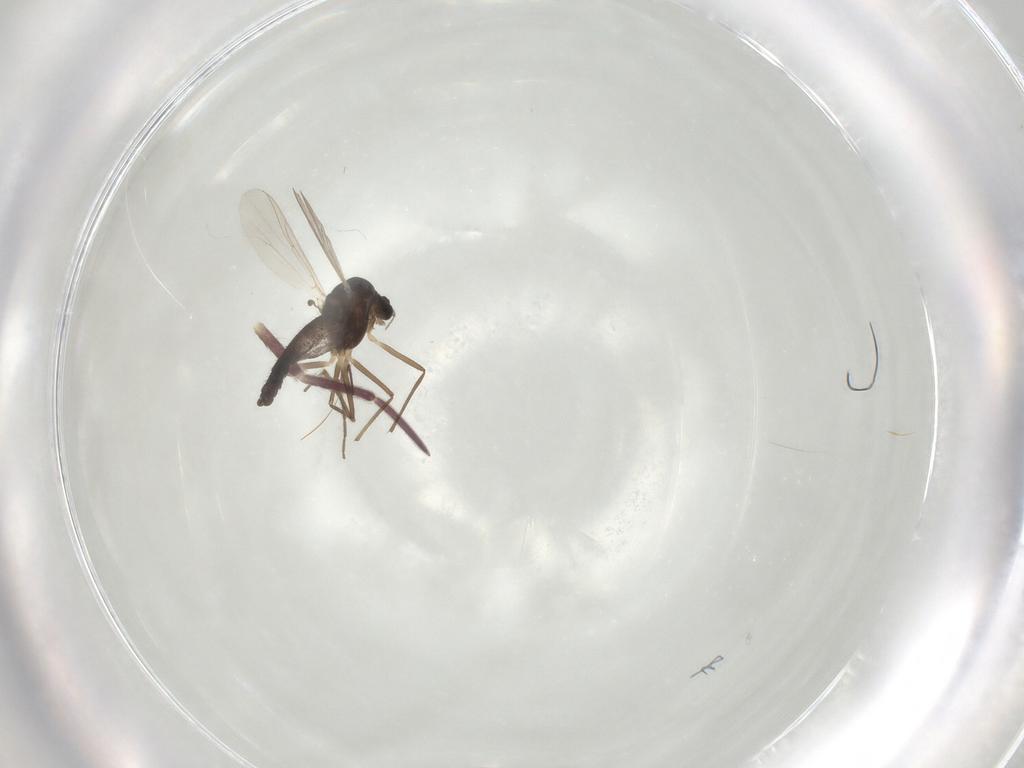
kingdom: Animalia
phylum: Arthropoda
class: Insecta
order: Diptera
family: Chironomidae
